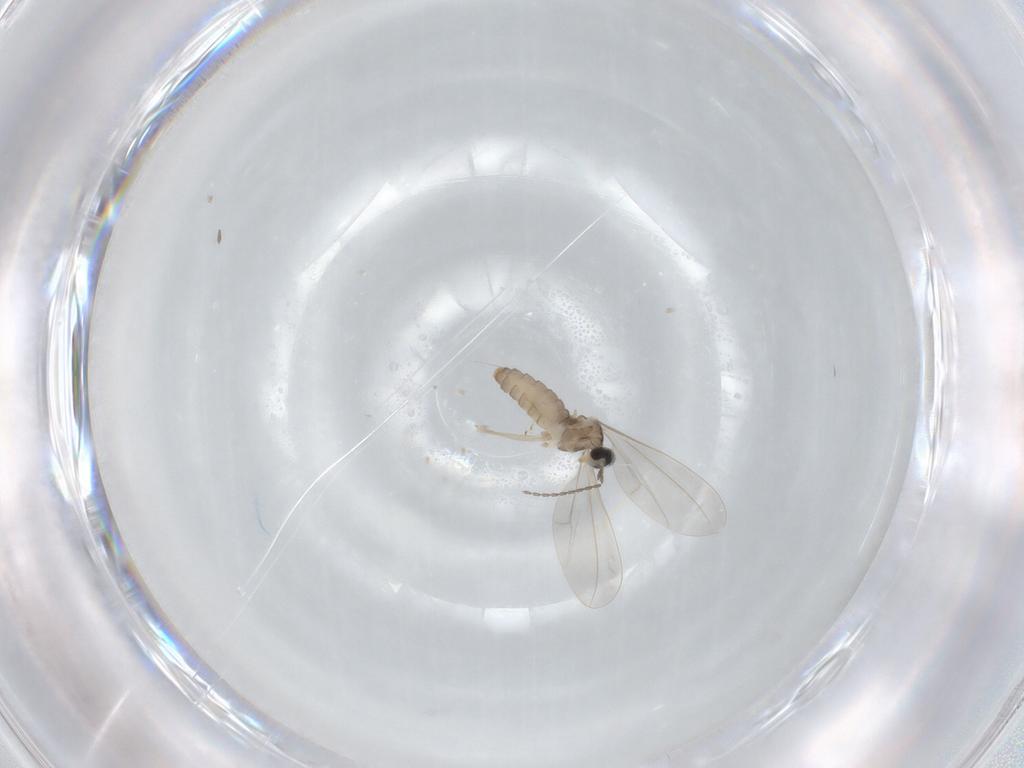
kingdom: Animalia
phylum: Arthropoda
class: Insecta
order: Diptera
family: Cecidomyiidae
